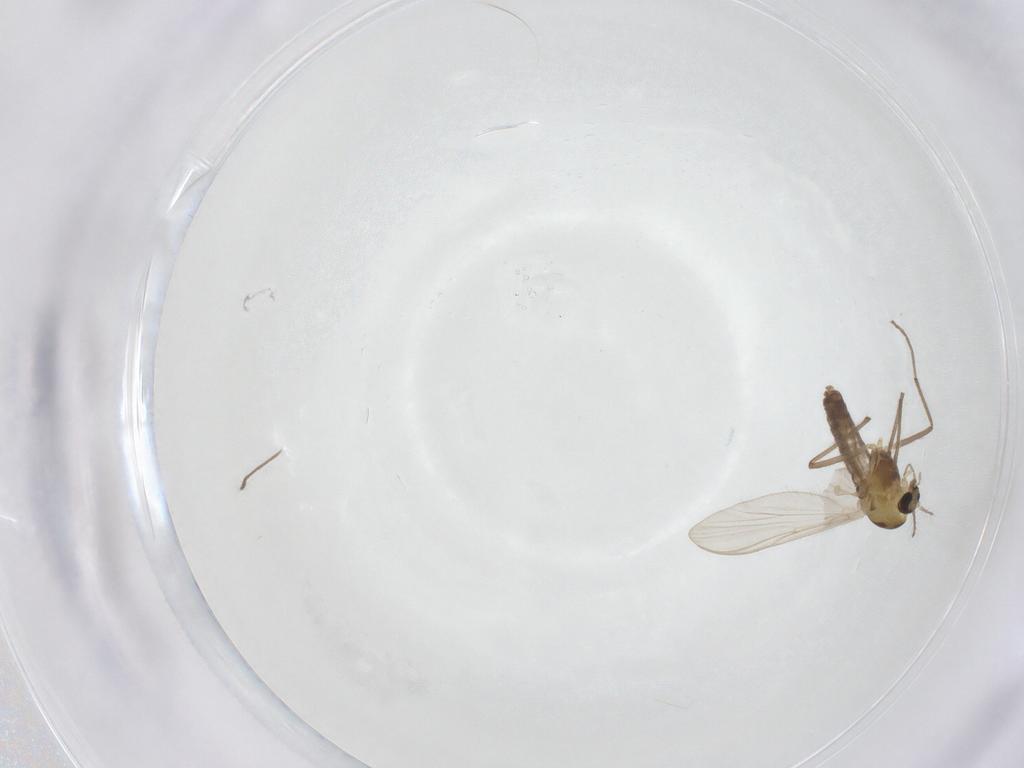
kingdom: Animalia
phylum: Arthropoda
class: Insecta
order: Diptera
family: Chironomidae
